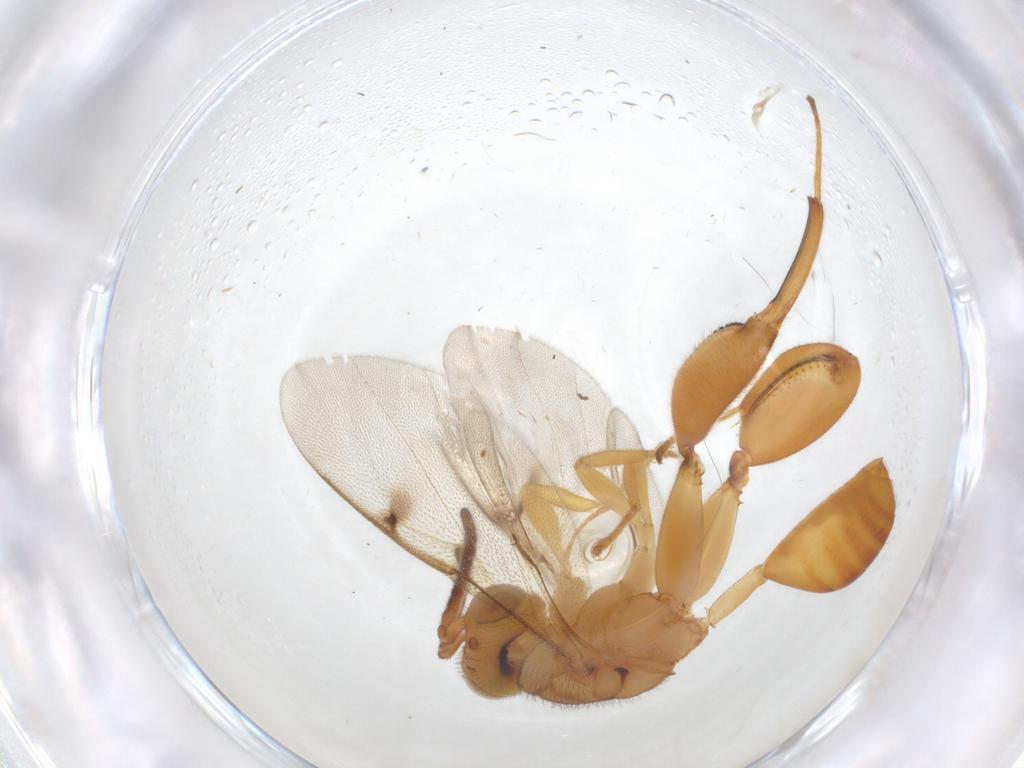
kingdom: Animalia
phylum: Arthropoda
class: Insecta
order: Hymenoptera
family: Chalcididae
